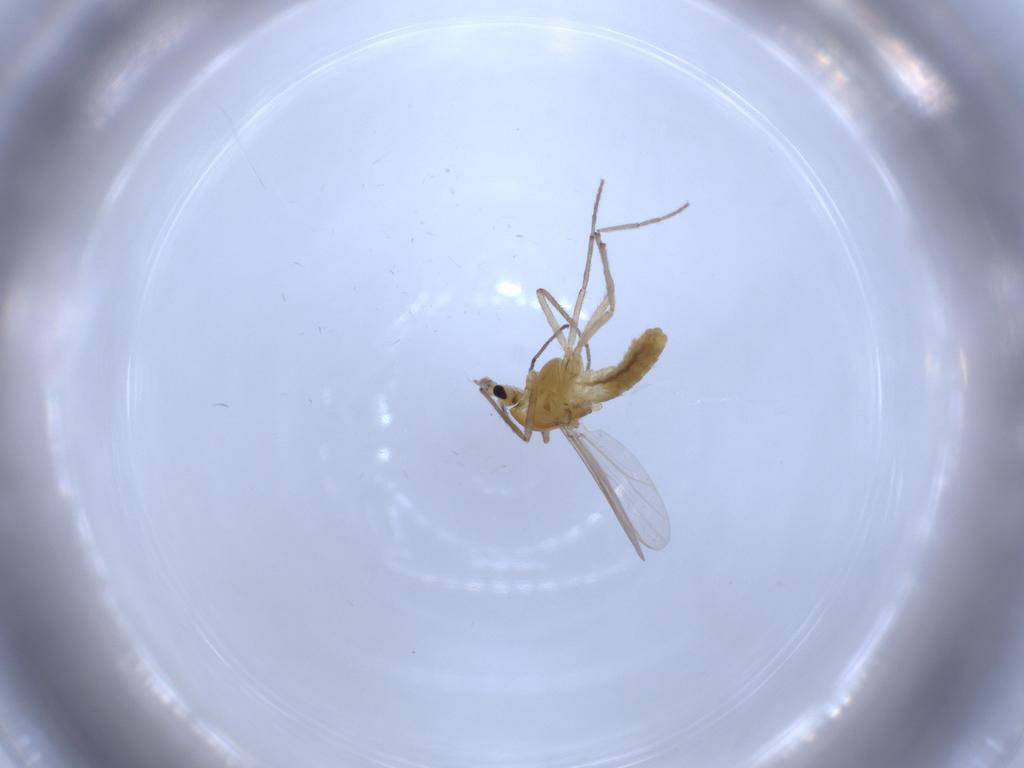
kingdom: Animalia
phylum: Arthropoda
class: Insecta
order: Diptera
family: Chironomidae
